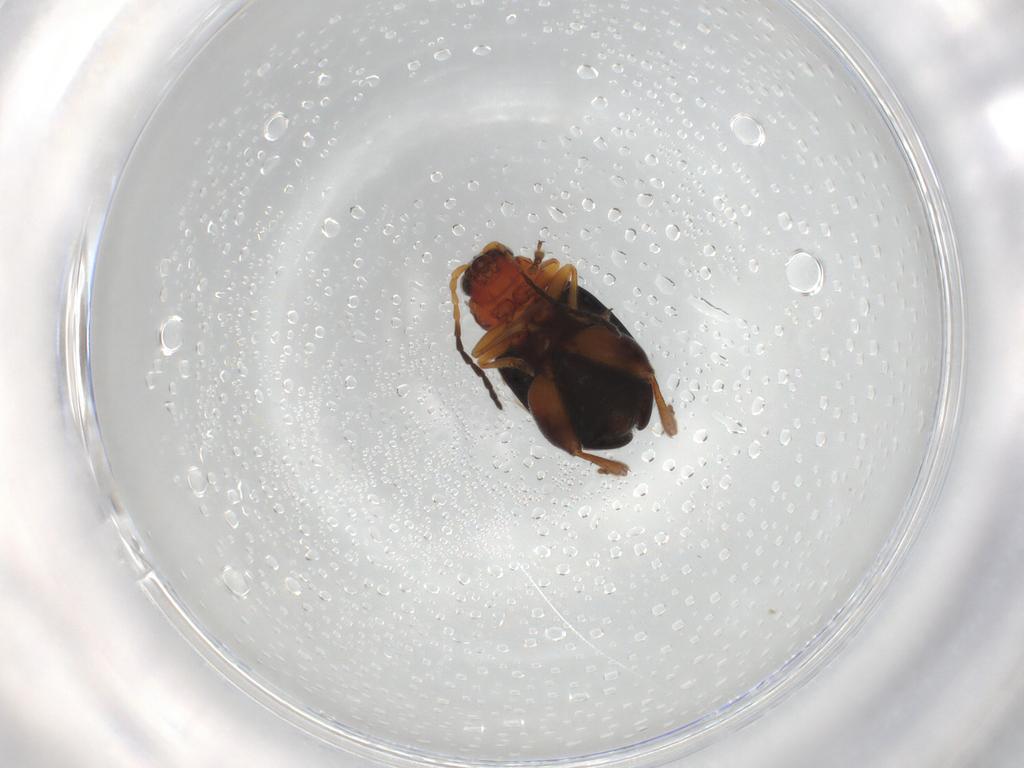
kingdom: Animalia
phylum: Arthropoda
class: Insecta
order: Coleoptera
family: Chrysomelidae
